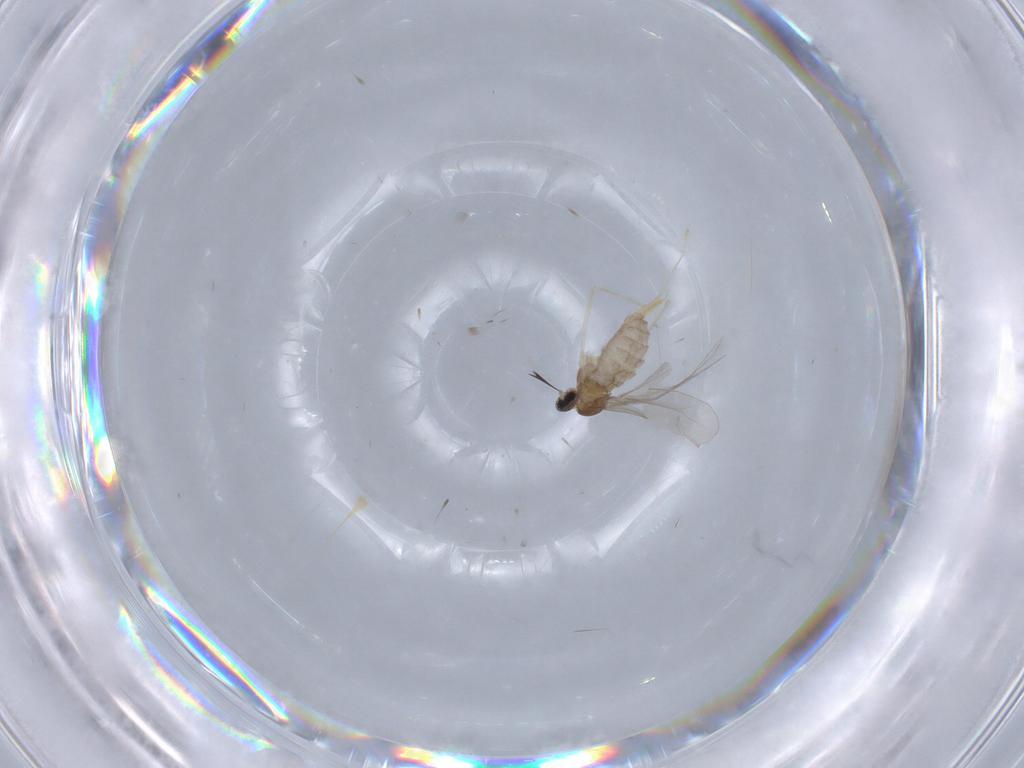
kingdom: Animalia
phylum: Arthropoda
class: Insecta
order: Diptera
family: Cecidomyiidae
